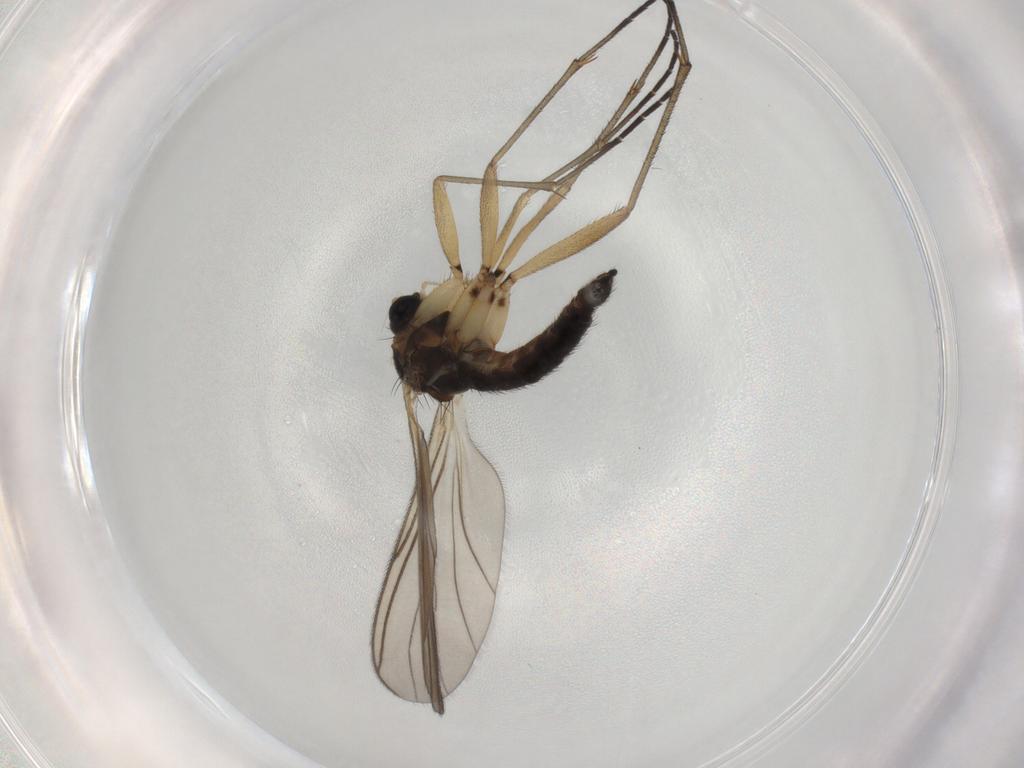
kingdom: Animalia
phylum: Arthropoda
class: Insecta
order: Diptera
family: Sciaridae
